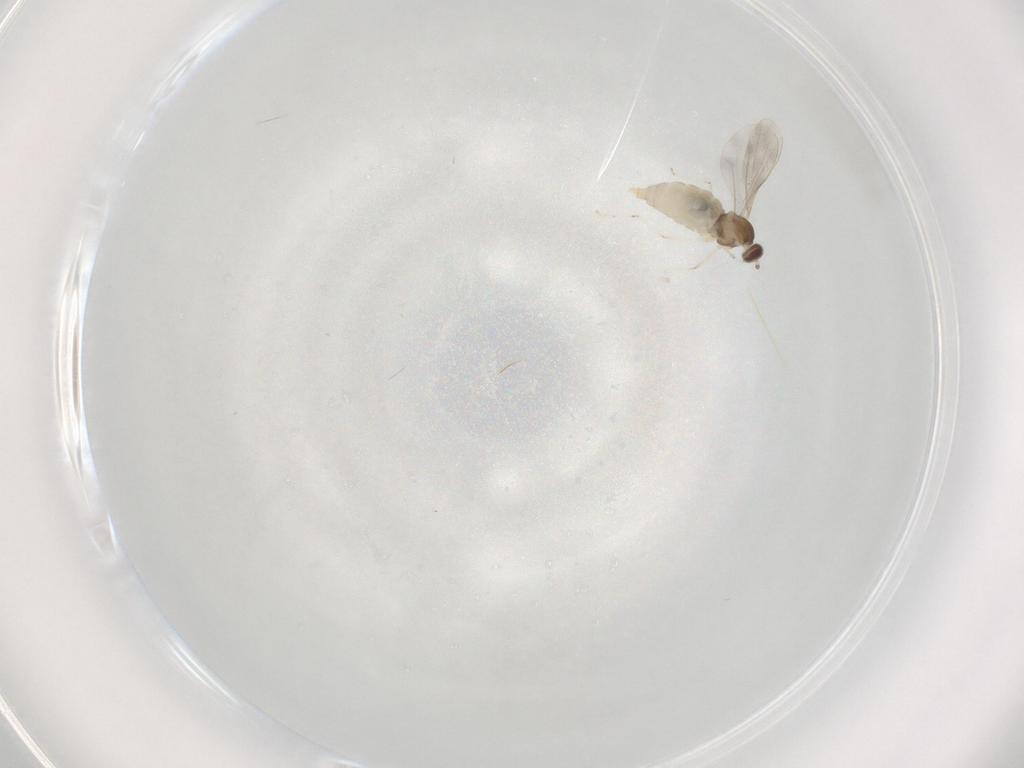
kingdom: Animalia
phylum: Arthropoda
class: Insecta
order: Diptera
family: Cecidomyiidae
